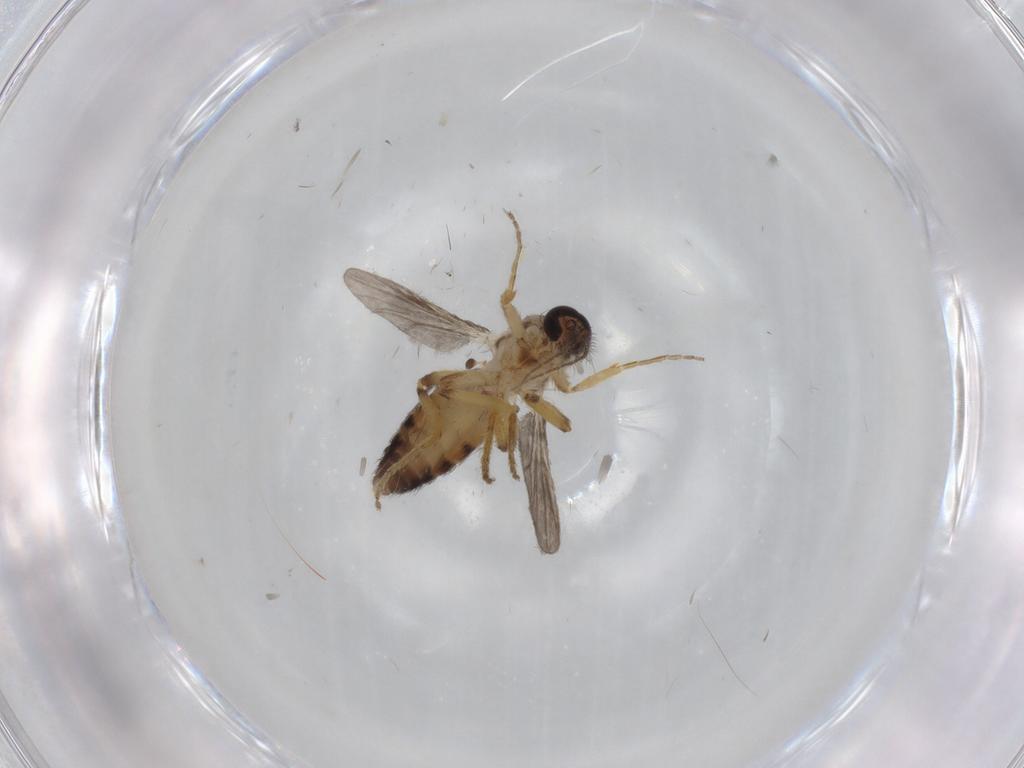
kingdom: Animalia
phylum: Arthropoda
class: Insecta
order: Diptera
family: Ceratopogonidae
